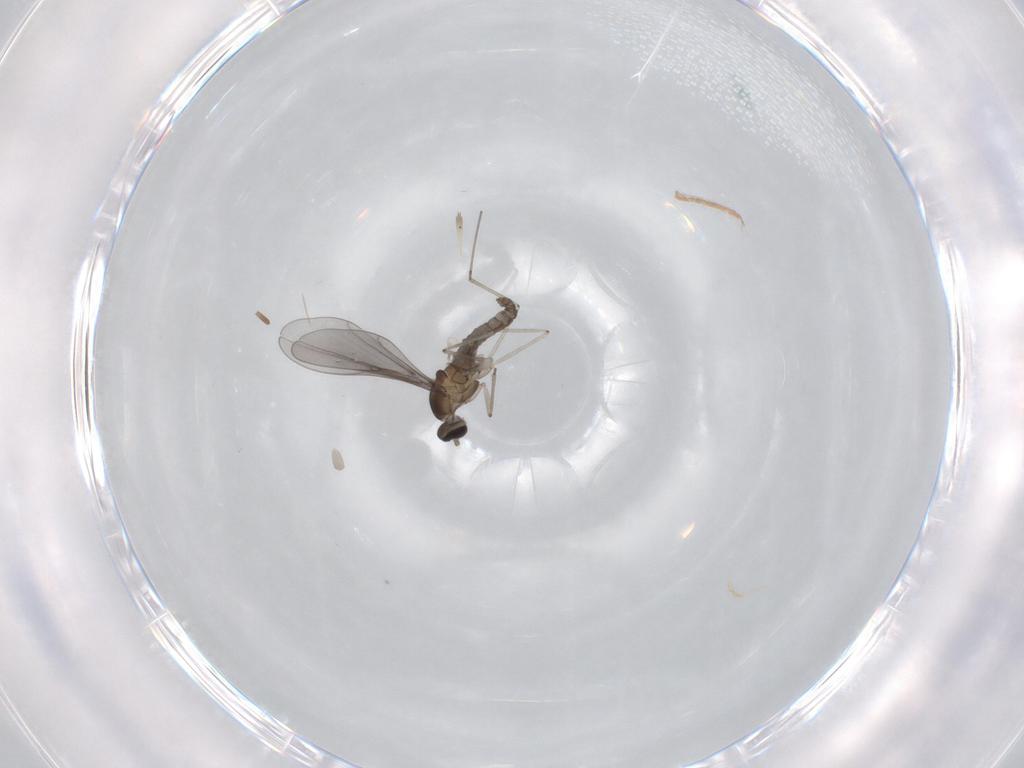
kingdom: Animalia
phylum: Arthropoda
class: Insecta
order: Diptera
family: Cecidomyiidae
